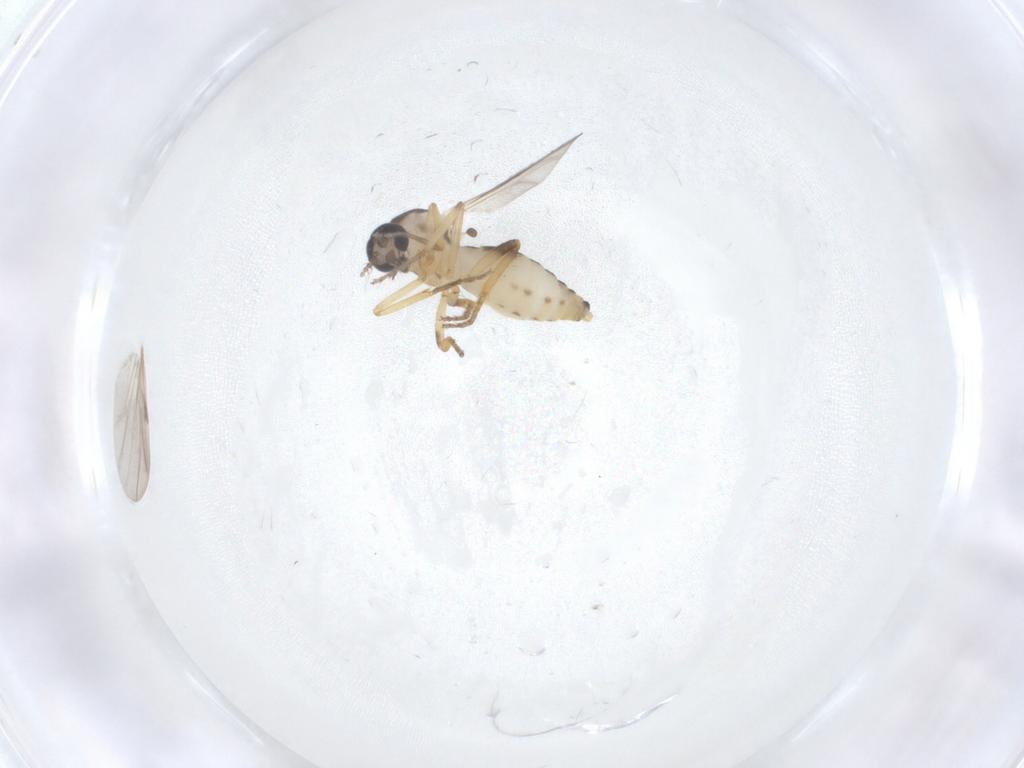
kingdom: Animalia
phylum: Arthropoda
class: Insecta
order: Diptera
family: Ceratopogonidae
